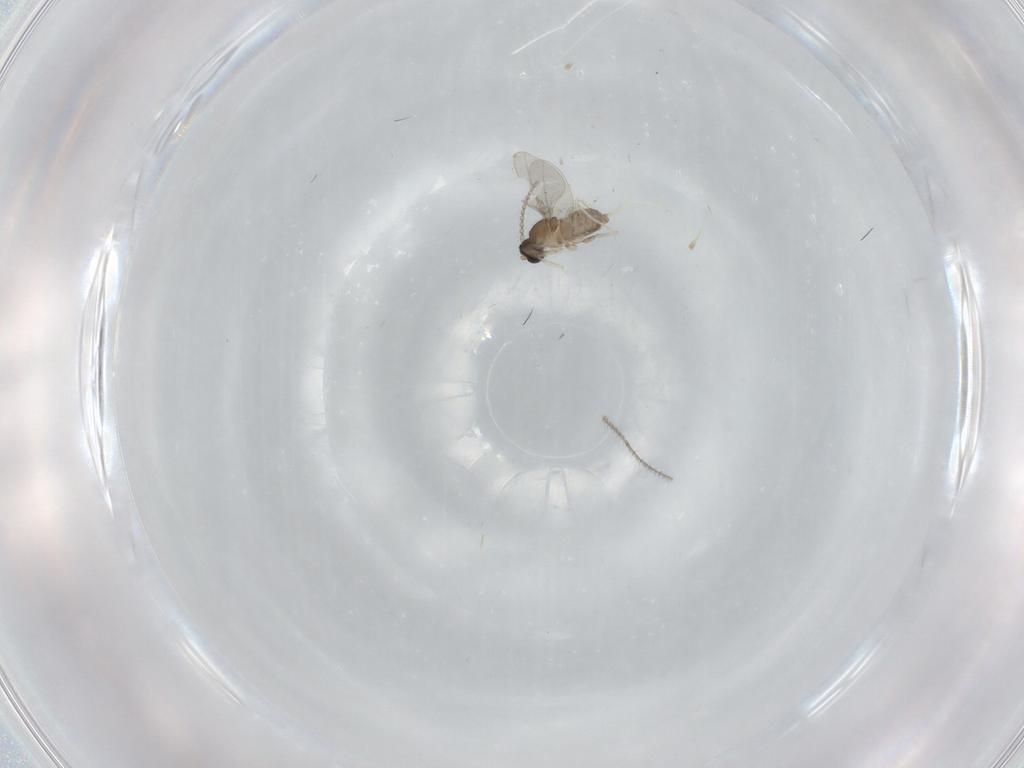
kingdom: Animalia
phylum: Arthropoda
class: Insecta
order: Diptera
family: Cecidomyiidae
